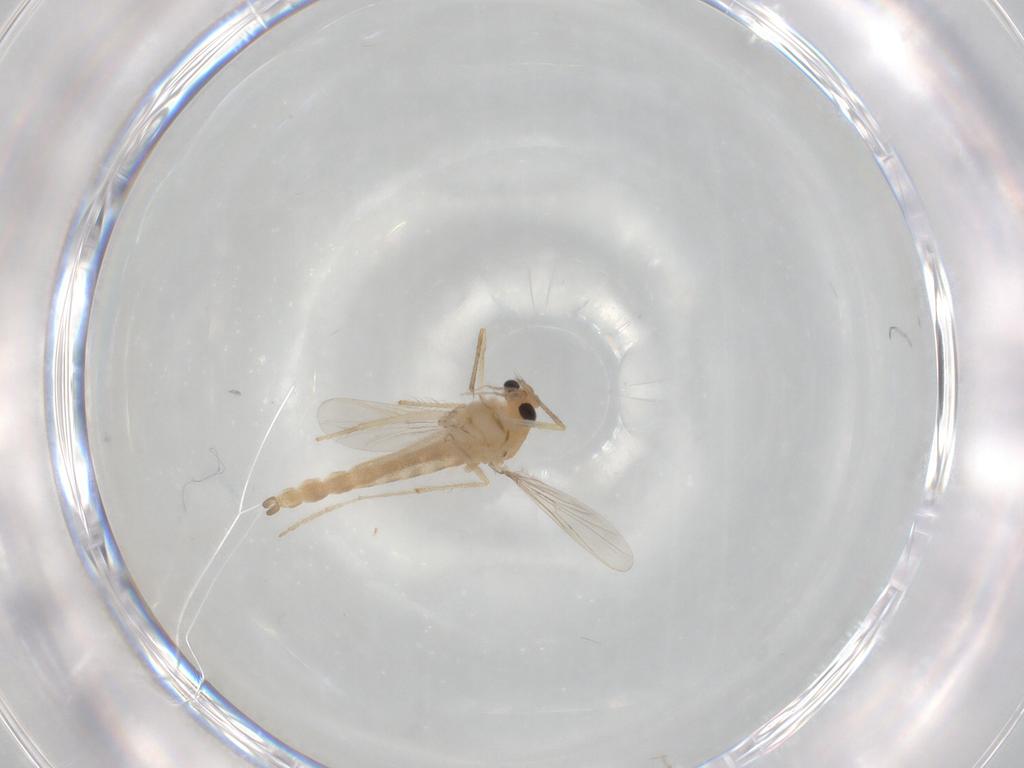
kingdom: Animalia
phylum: Arthropoda
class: Insecta
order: Diptera
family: Chironomidae
